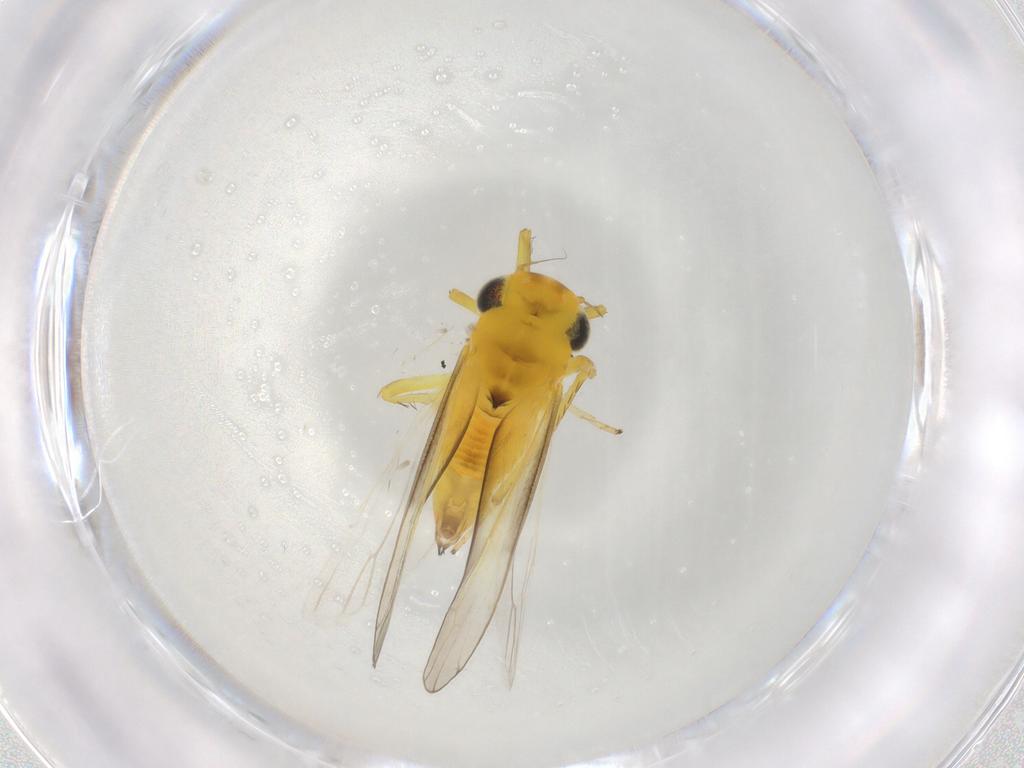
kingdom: Animalia
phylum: Arthropoda
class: Insecta
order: Hemiptera
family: Cicadellidae
